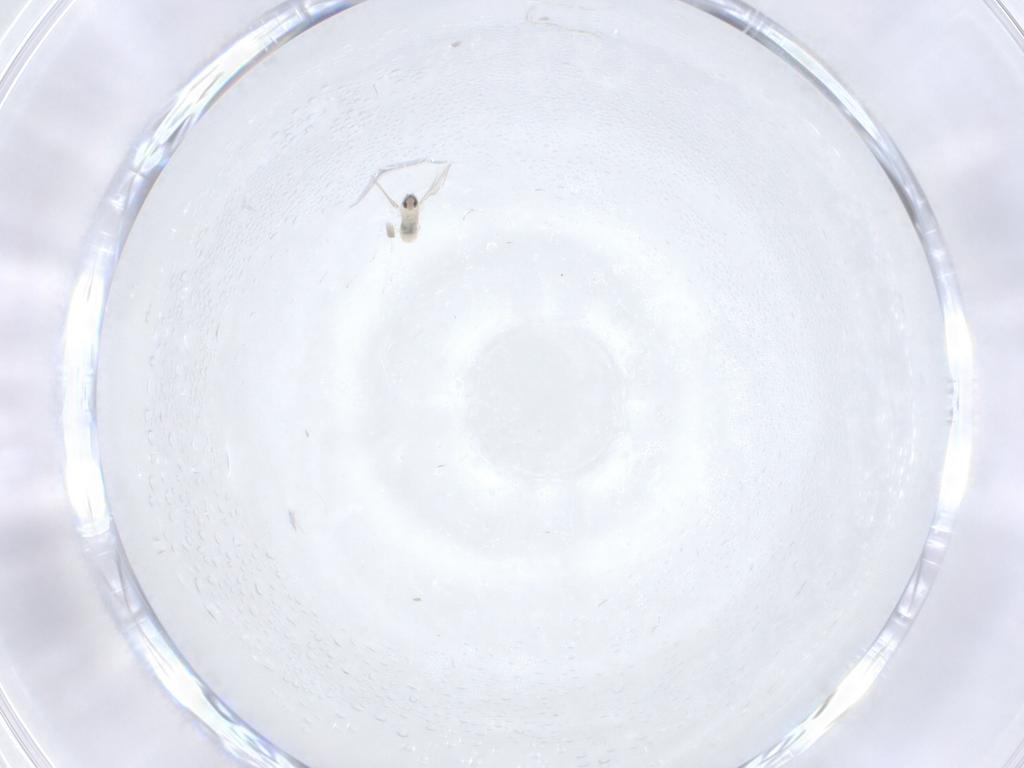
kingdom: Animalia
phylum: Arthropoda
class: Insecta
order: Diptera
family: Cecidomyiidae
